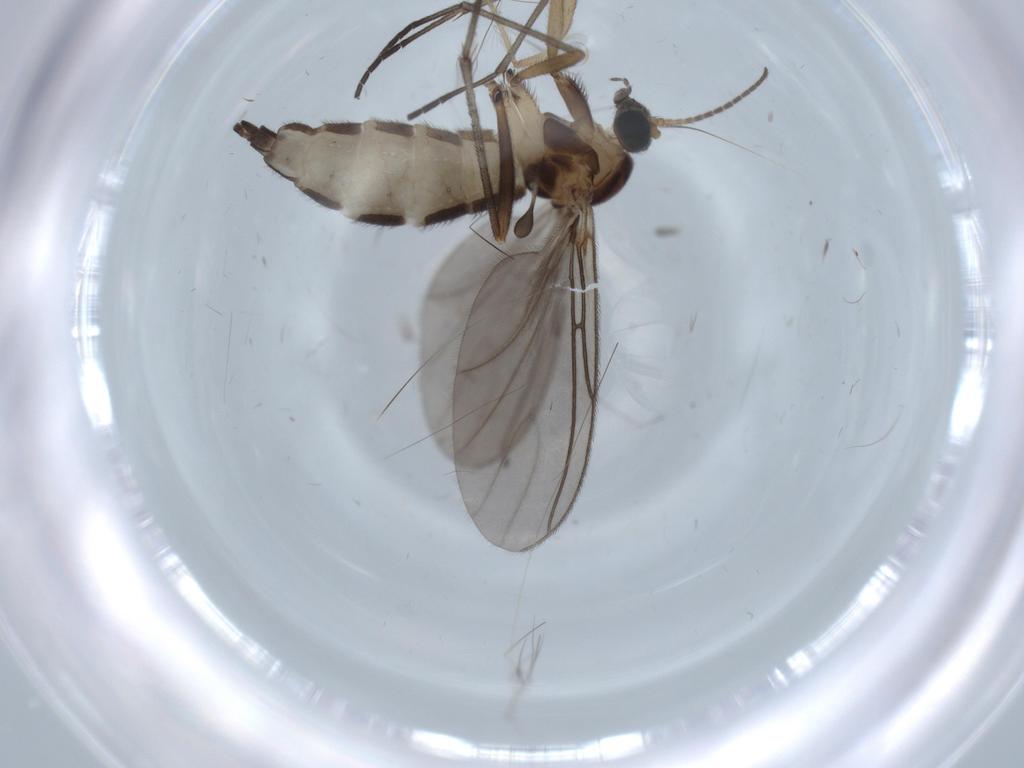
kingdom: Animalia
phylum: Arthropoda
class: Insecta
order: Diptera
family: Sciaridae
